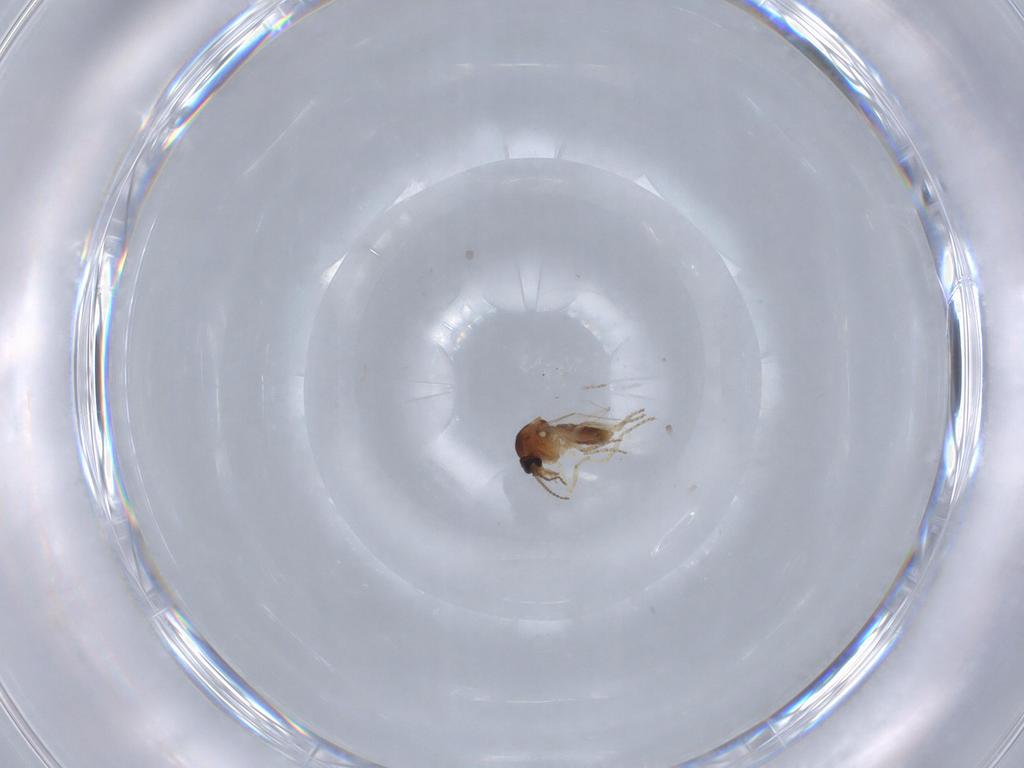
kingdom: Animalia
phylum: Arthropoda
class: Insecta
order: Diptera
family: Ceratopogonidae
